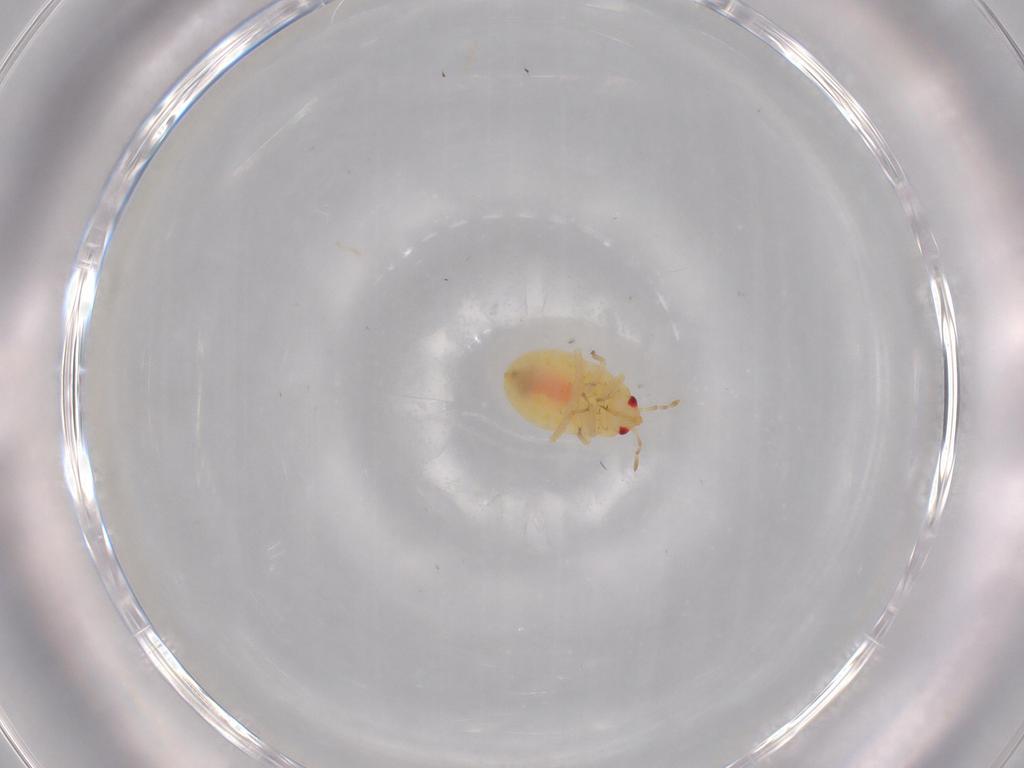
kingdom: Animalia
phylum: Arthropoda
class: Insecta
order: Hemiptera
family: Anthocoridae
